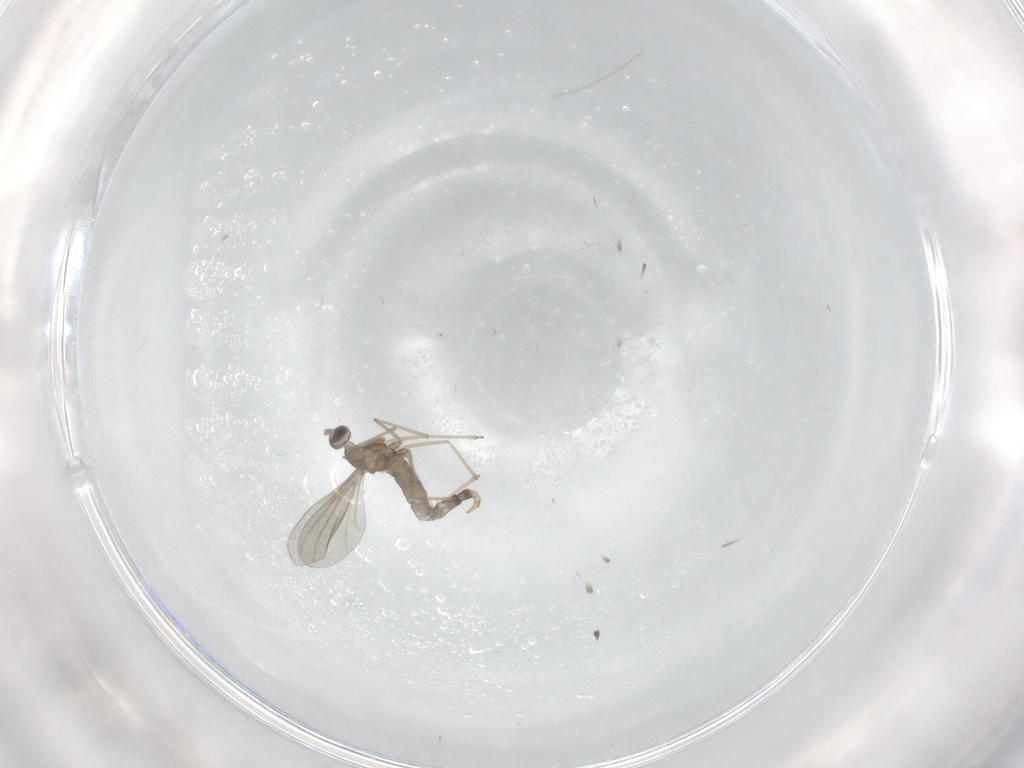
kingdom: Animalia
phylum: Arthropoda
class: Insecta
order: Diptera
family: Cecidomyiidae
